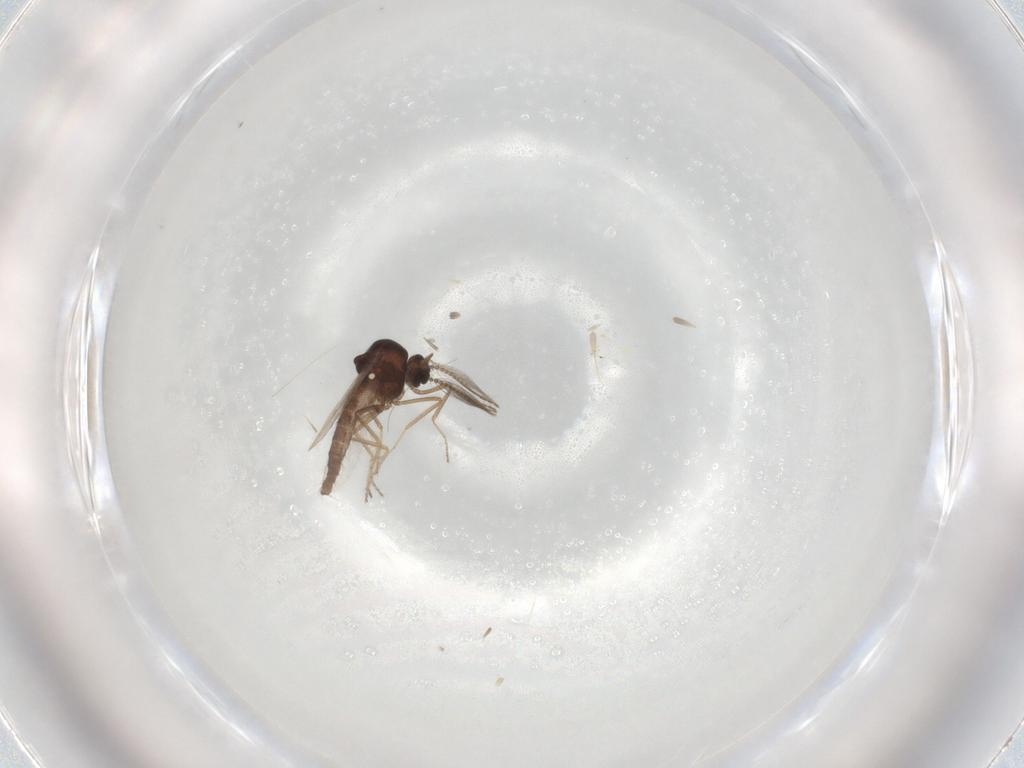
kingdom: Animalia
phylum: Arthropoda
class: Insecta
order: Diptera
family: Ceratopogonidae
